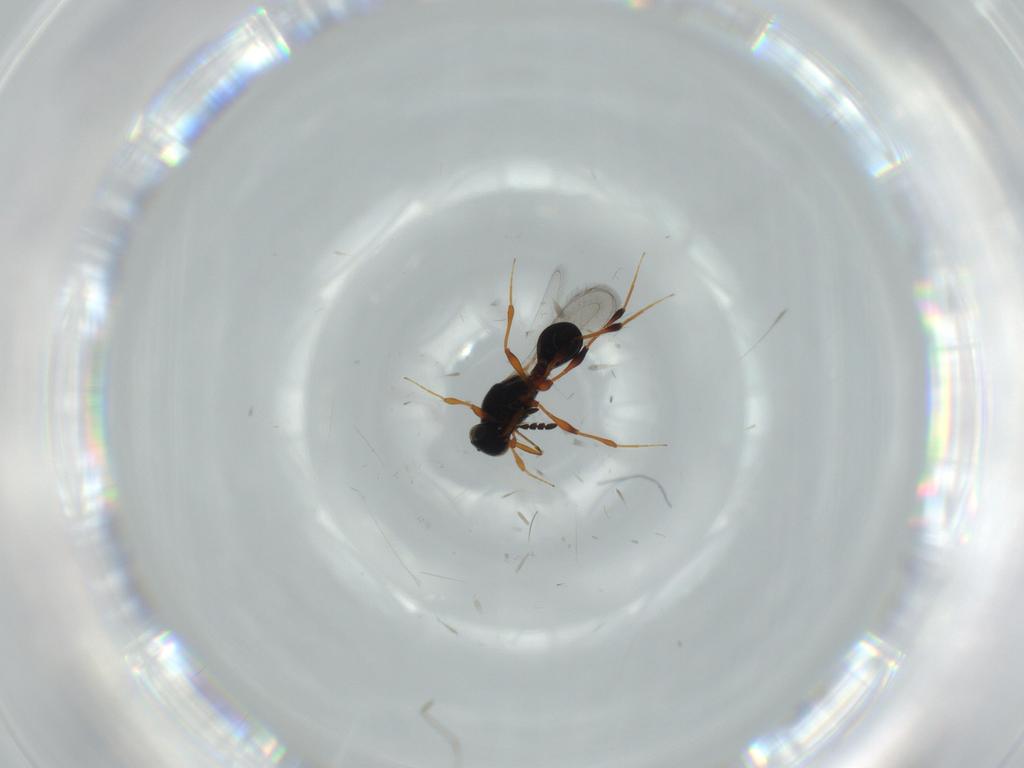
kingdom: Animalia
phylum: Arthropoda
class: Insecta
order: Hymenoptera
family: Platygastridae
